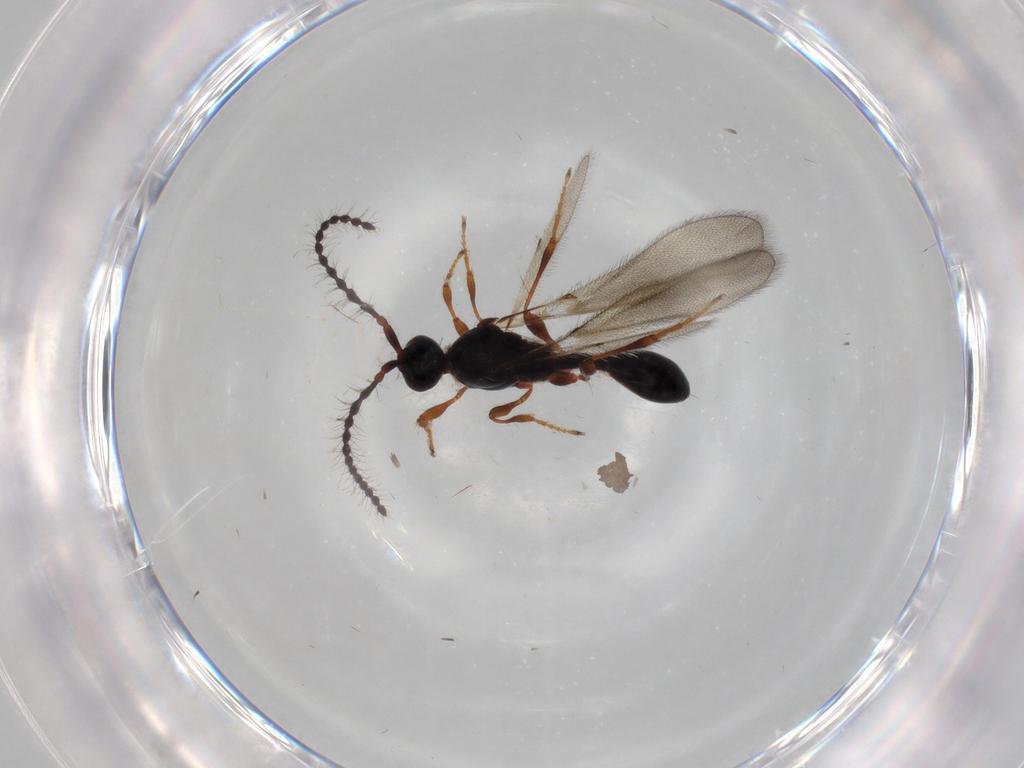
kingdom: Animalia
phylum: Arthropoda
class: Insecta
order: Hymenoptera
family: Diapriidae
